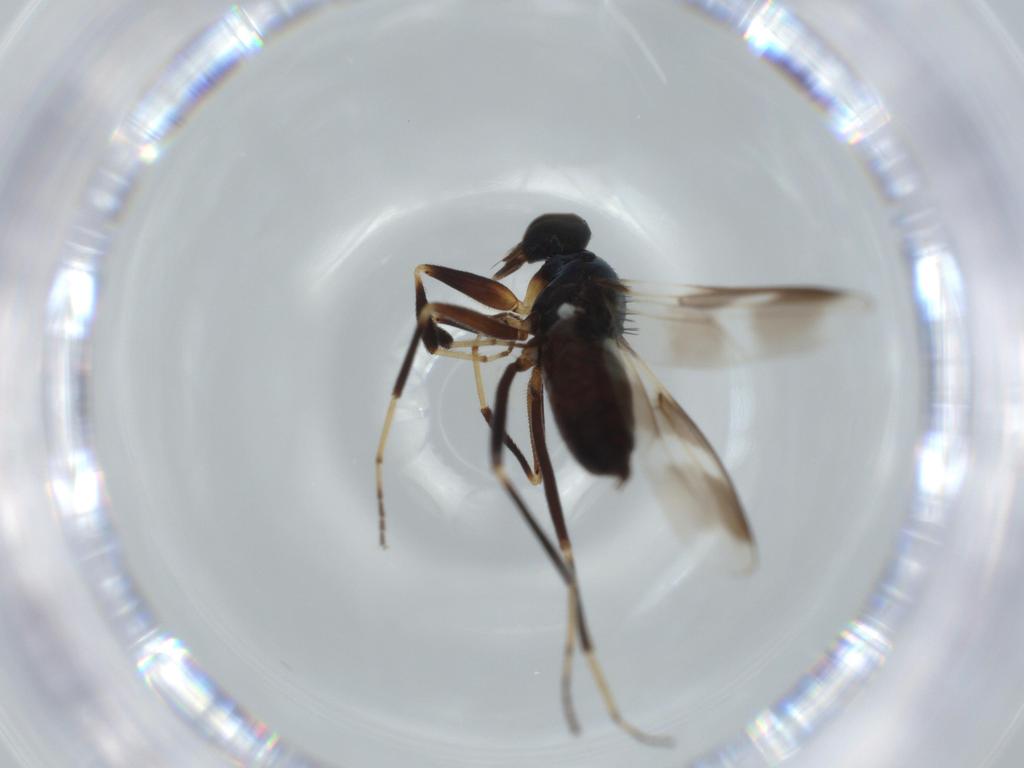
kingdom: Animalia
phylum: Arthropoda
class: Insecta
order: Diptera
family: Hybotidae
